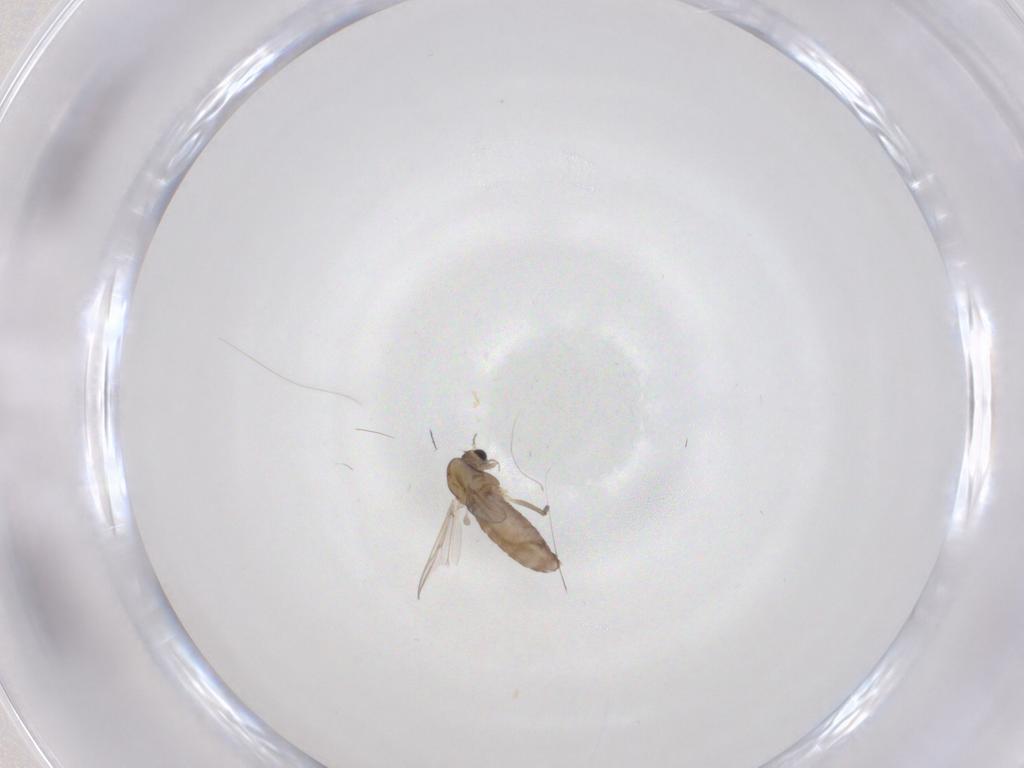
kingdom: Animalia
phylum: Arthropoda
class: Insecta
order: Diptera
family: Chironomidae
